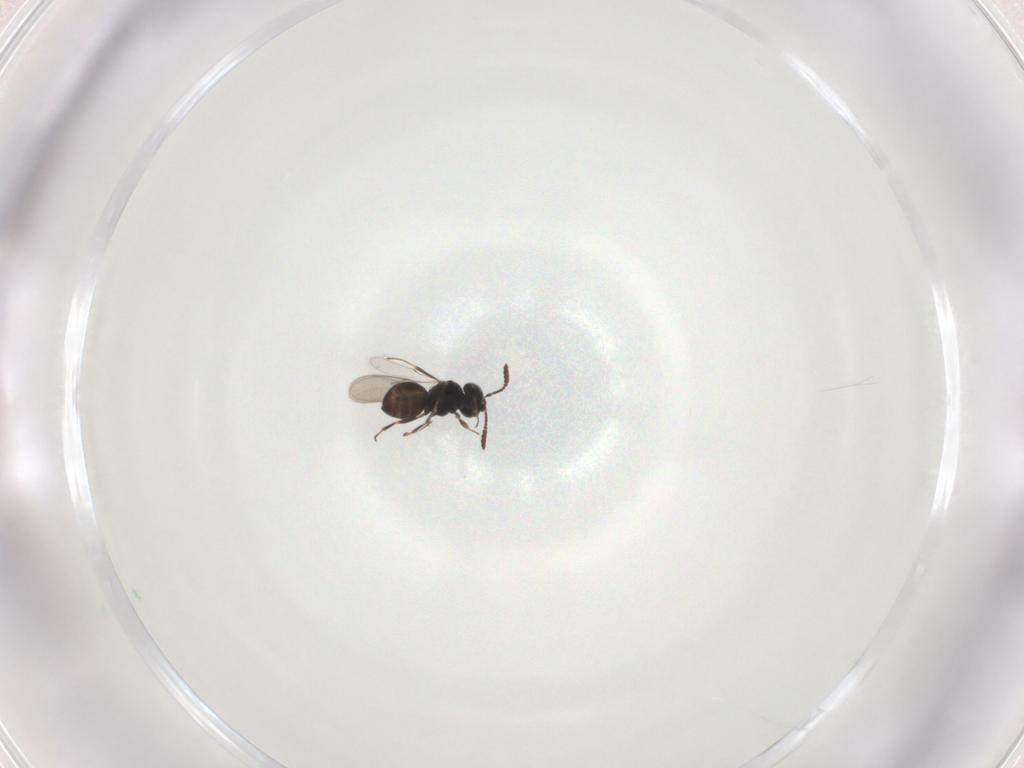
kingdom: Animalia
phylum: Arthropoda
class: Insecta
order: Hymenoptera
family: Scelionidae
